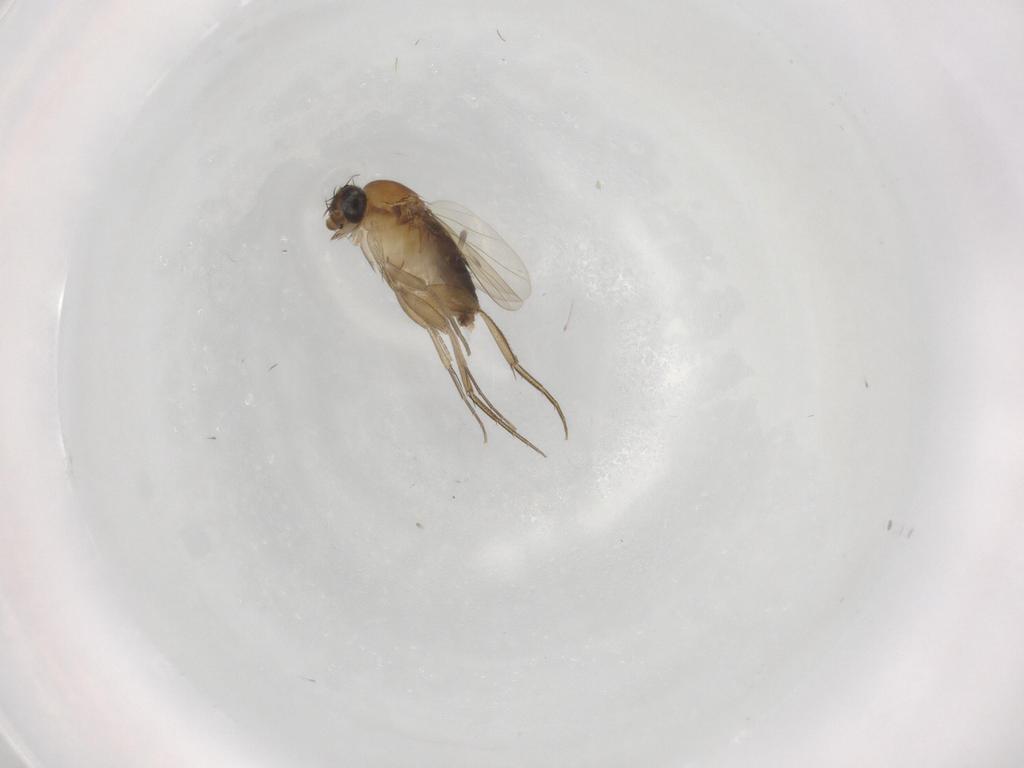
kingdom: Animalia
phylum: Arthropoda
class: Insecta
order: Diptera
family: Phoridae
